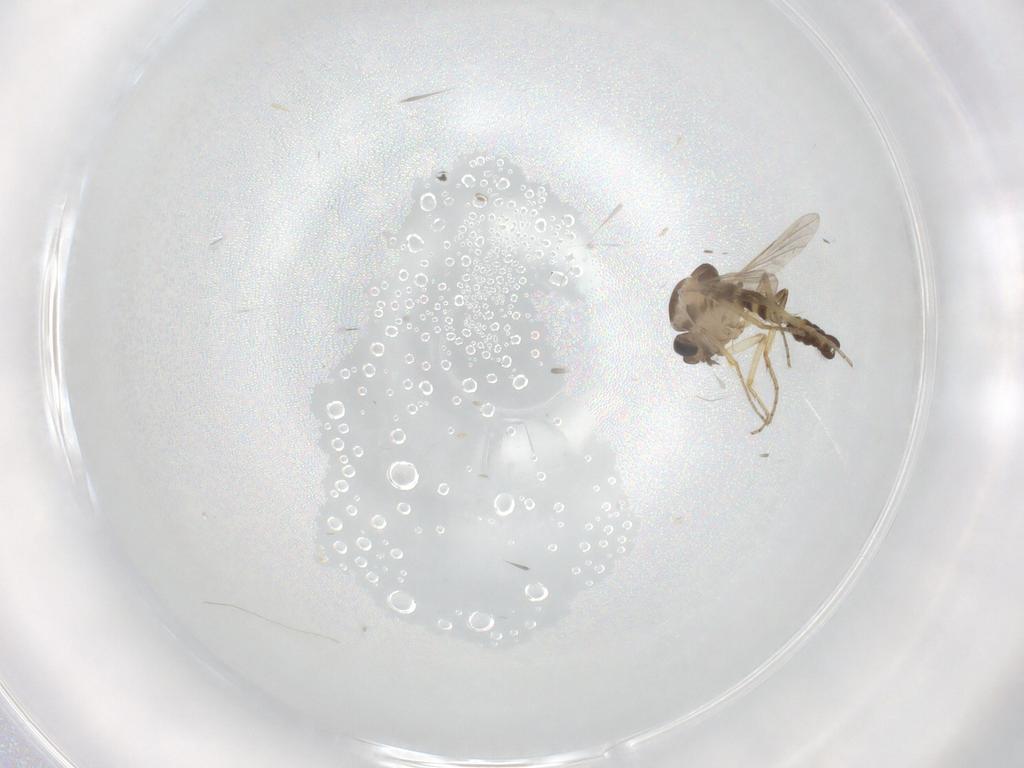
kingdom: Animalia
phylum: Arthropoda
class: Insecta
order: Diptera
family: Ceratopogonidae
